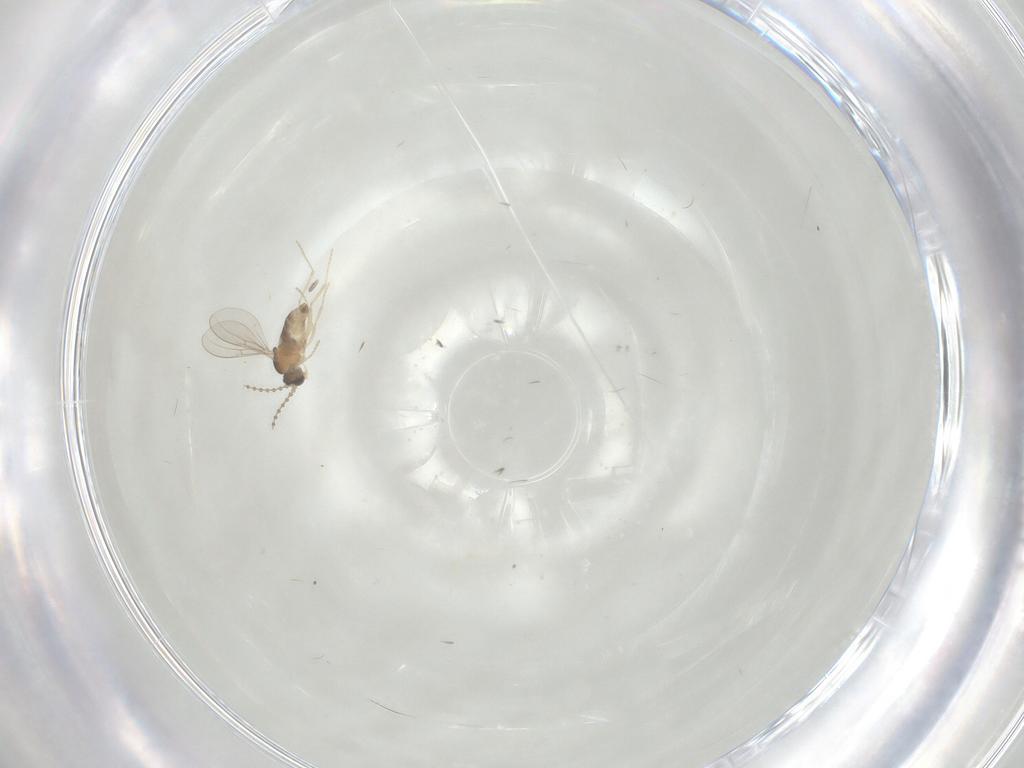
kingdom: Animalia
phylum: Arthropoda
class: Insecta
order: Diptera
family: Cecidomyiidae
